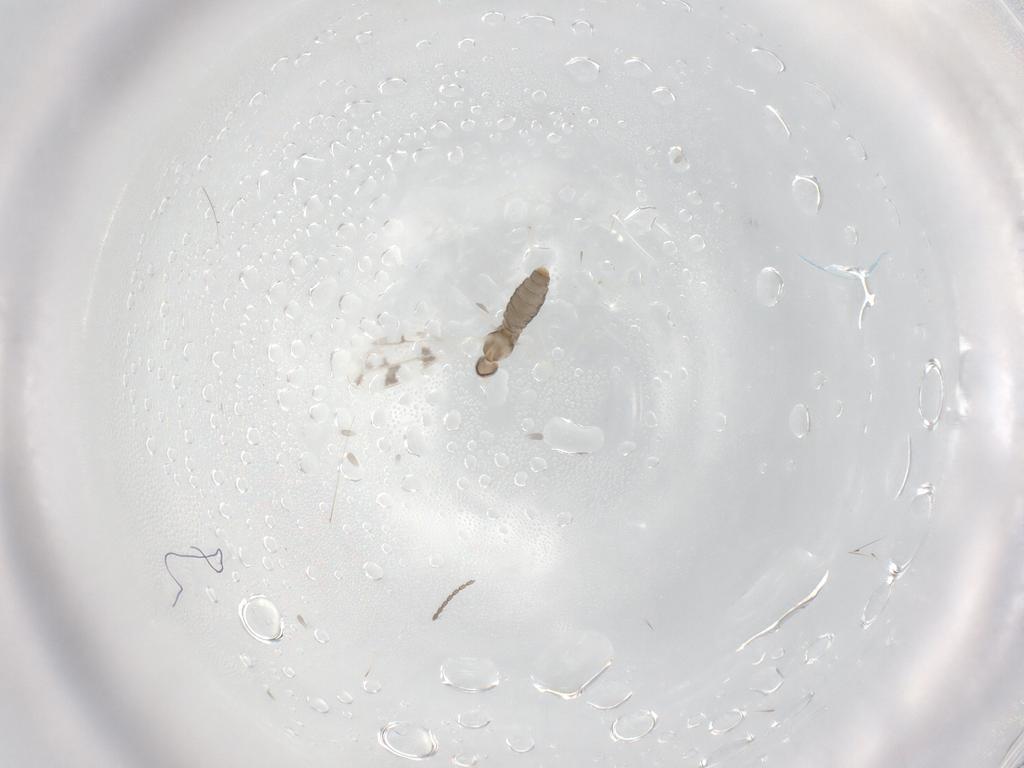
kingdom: Animalia
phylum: Arthropoda
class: Insecta
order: Diptera
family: Cecidomyiidae
